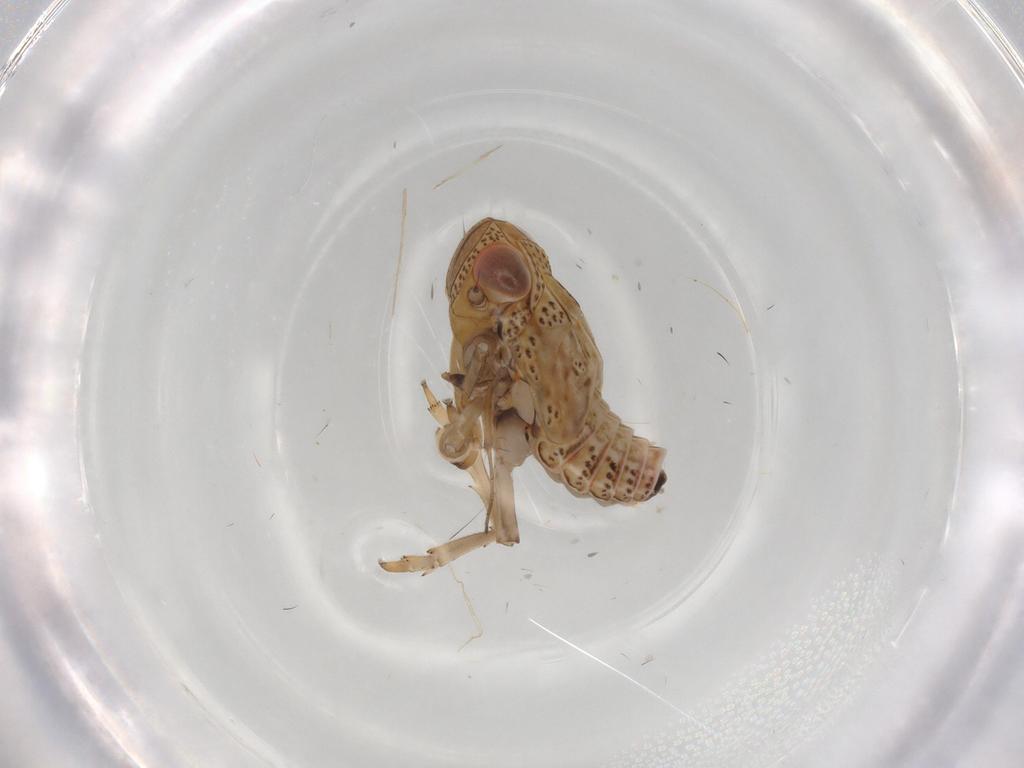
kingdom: Animalia
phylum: Arthropoda
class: Insecta
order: Hemiptera
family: Issidae
